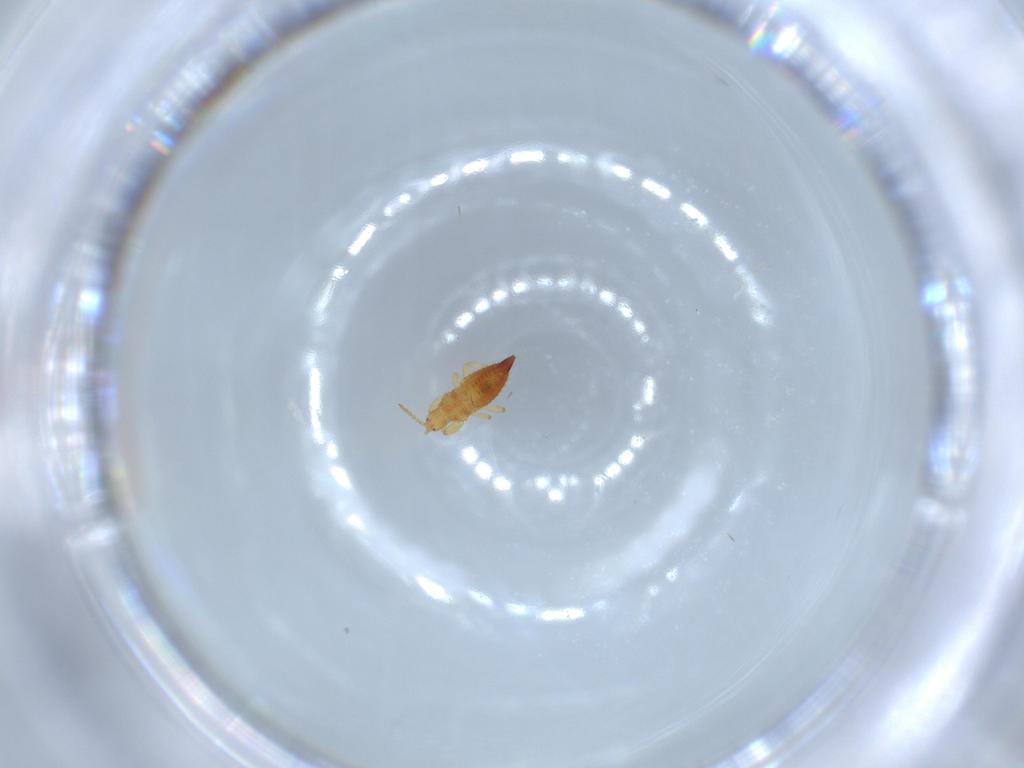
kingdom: Animalia
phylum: Arthropoda
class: Insecta
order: Thysanoptera
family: Phlaeothripidae
